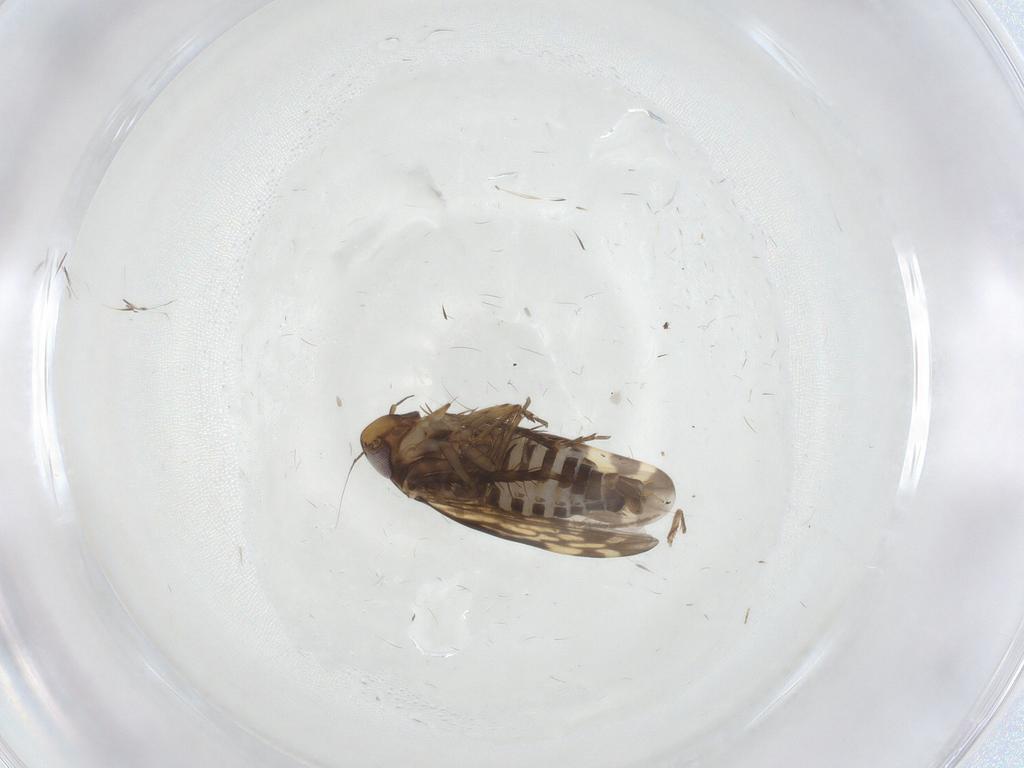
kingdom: Animalia
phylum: Arthropoda
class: Insecta
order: Hemiptera
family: Cicadellidae
